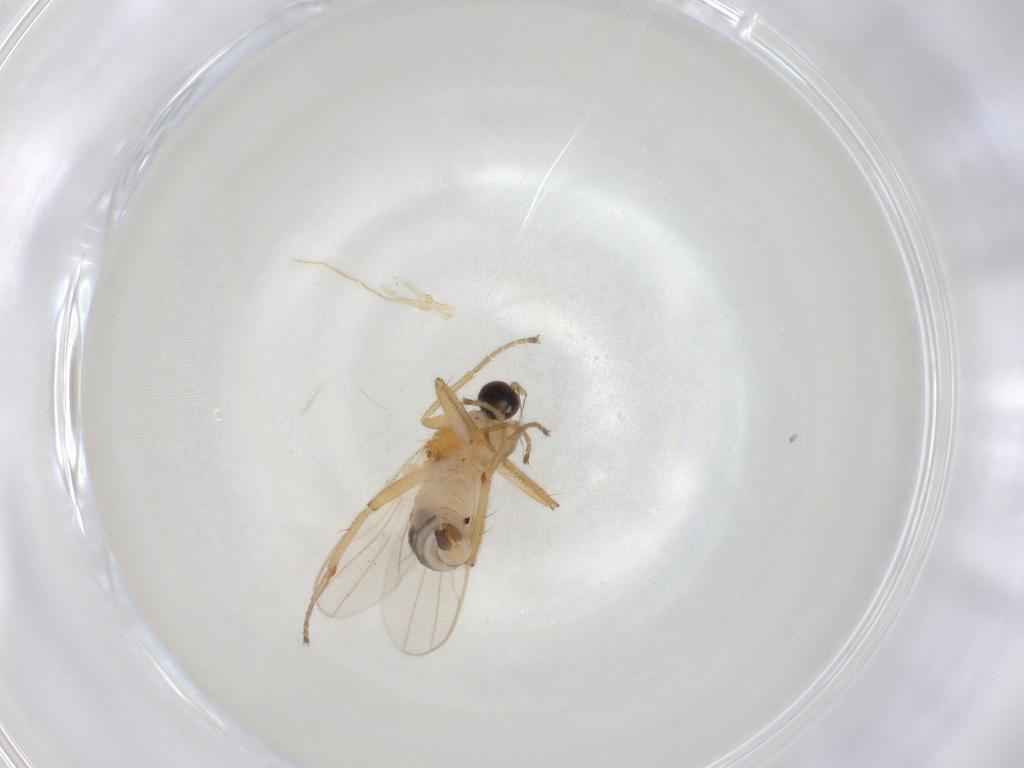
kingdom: Animalia
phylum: Arthropoda
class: Insecta
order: Diptera
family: Hybotidae
